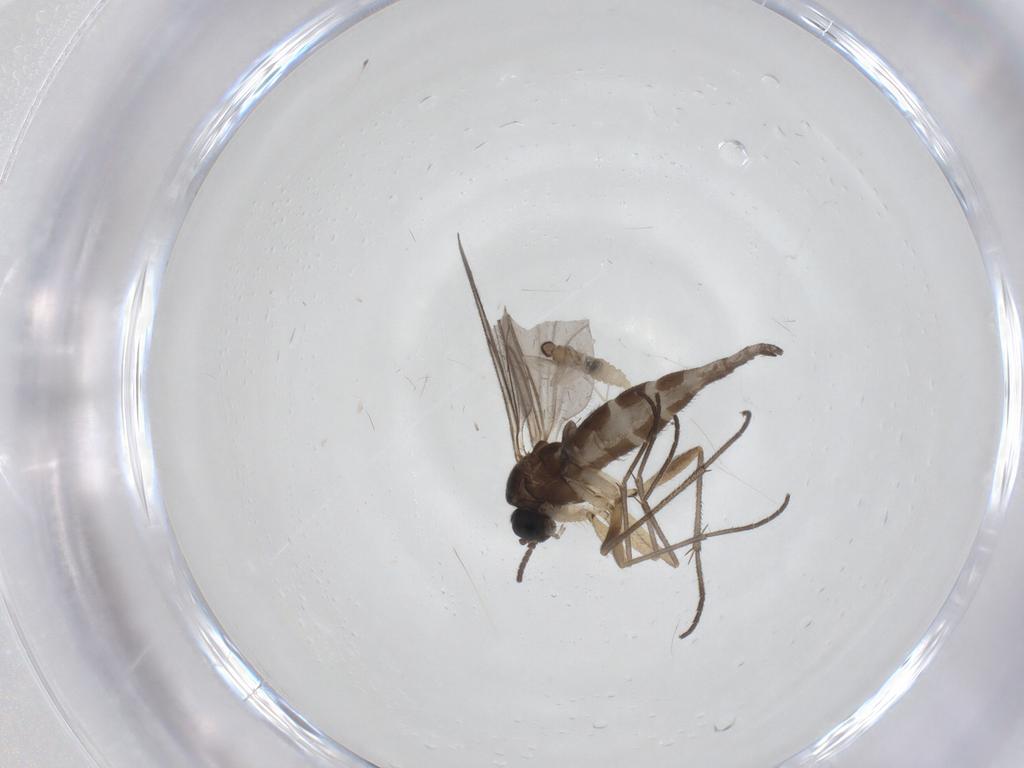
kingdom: Animalia
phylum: Arthropoda
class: Insecta
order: Diptera
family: Cecidomyiidae
